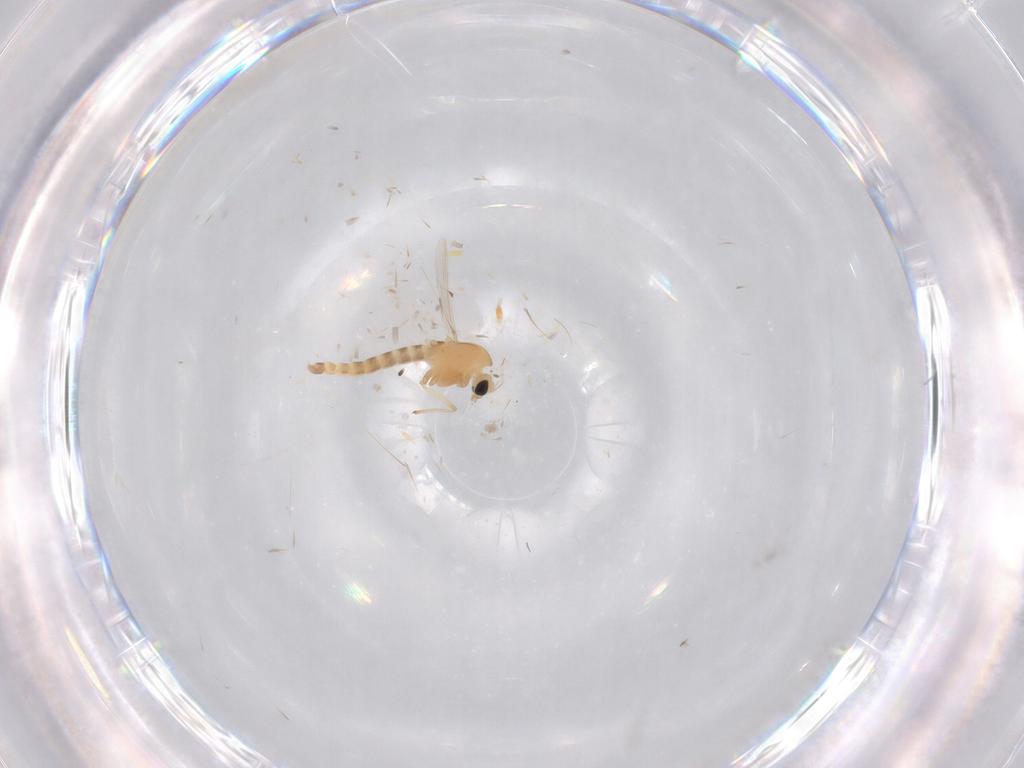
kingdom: Animalia
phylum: Arthropoda
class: Insecta
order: Diptera
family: Chironomidae
